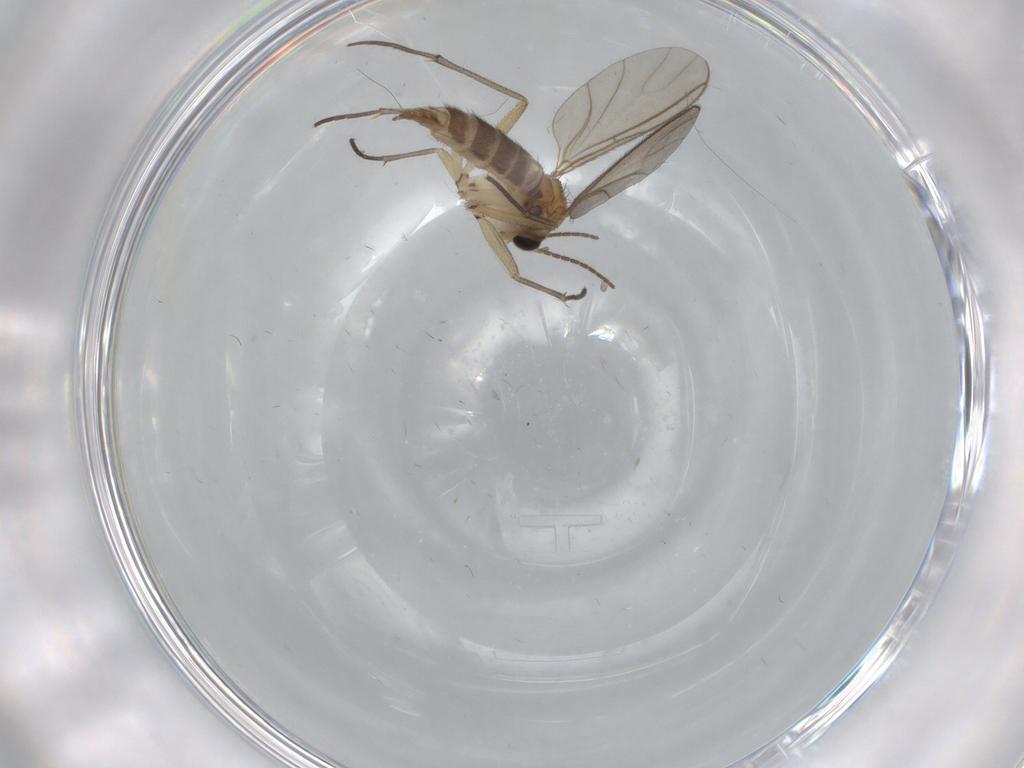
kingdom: Animalia
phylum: Arthropoda
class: Insecta
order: Diptera
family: Sciaridae
